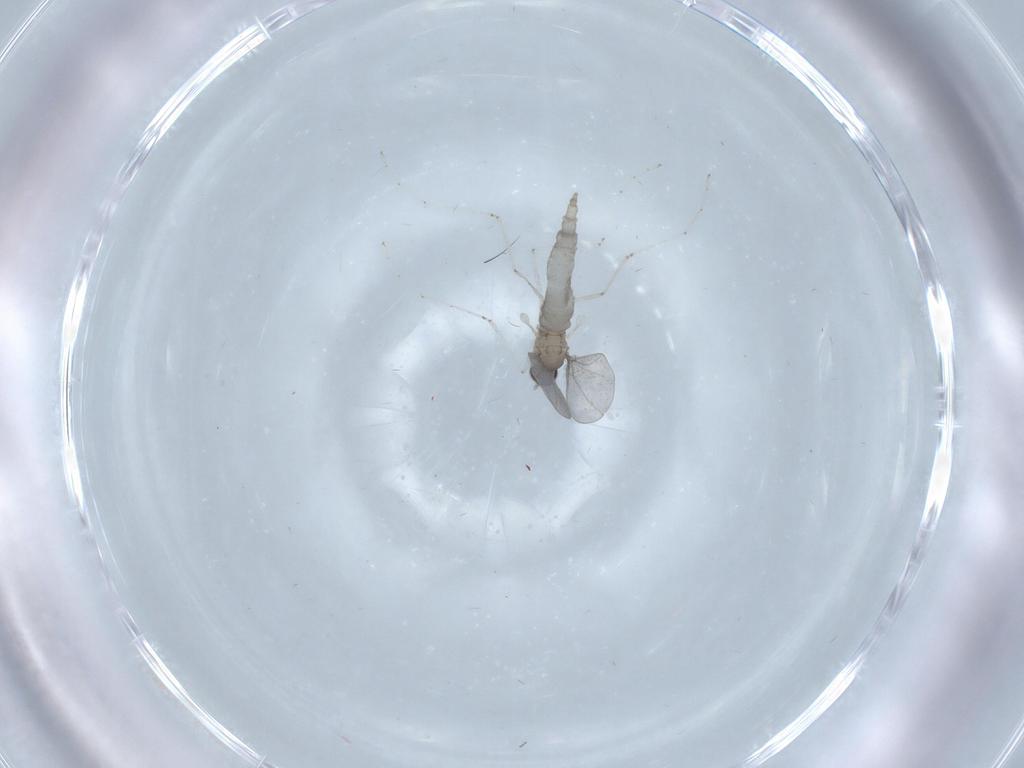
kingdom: Animalia
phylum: Arthropoda
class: Insecta
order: Diptera
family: Cecidomyiidae
